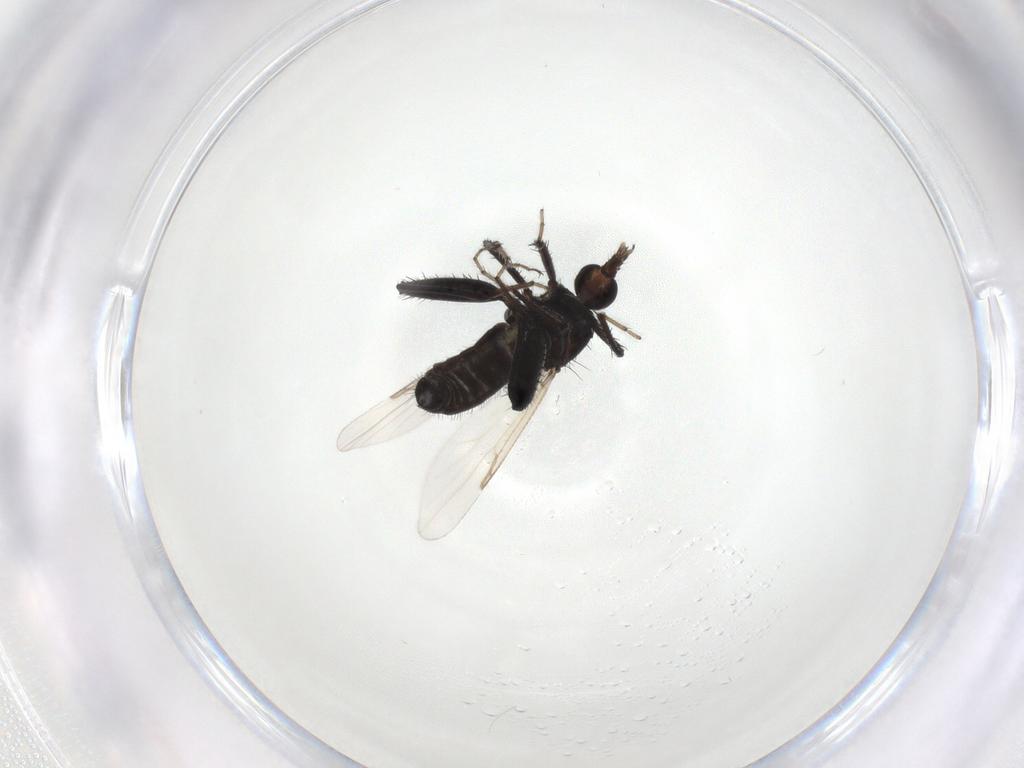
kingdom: Animalia
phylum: Arthropoda
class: Insecta
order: Diptera
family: Ceratopogonidae
